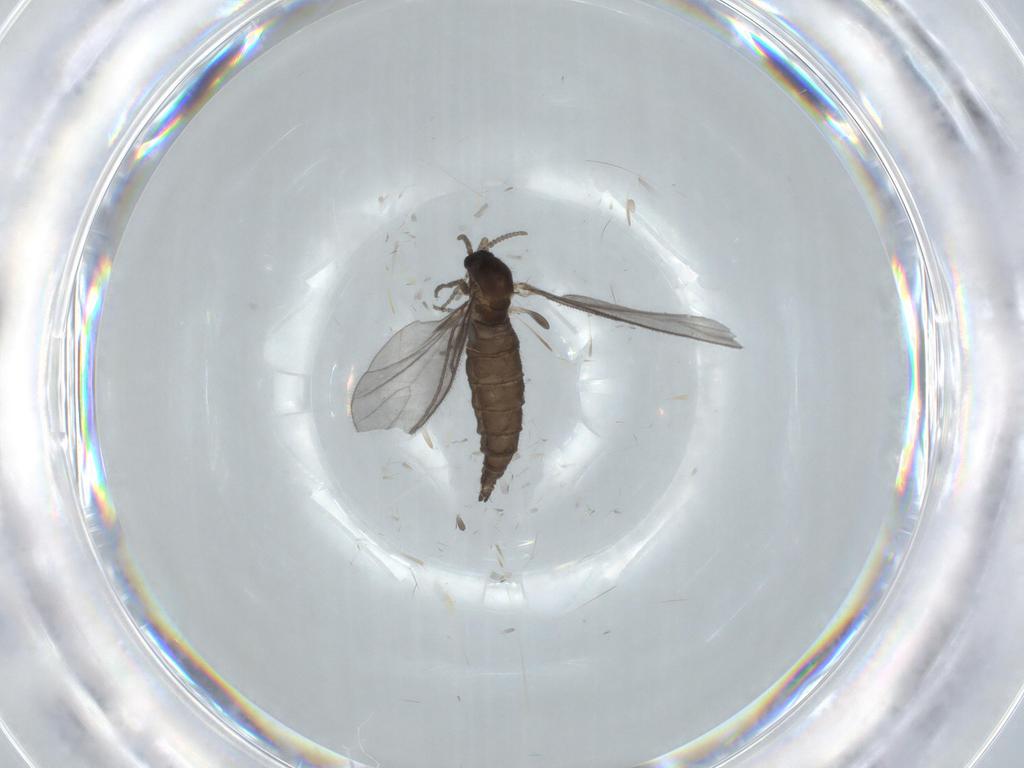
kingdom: Animalia
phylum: Arthropoda
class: Insecta
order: Diptera
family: Sciaridae
